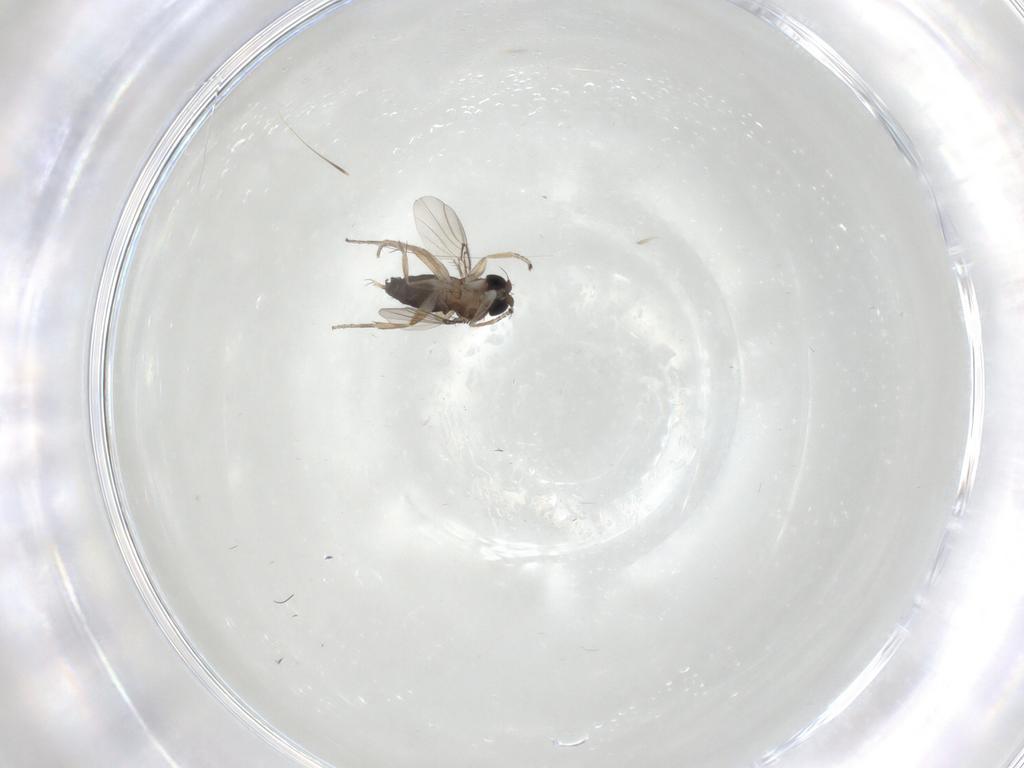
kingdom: Animalia
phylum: Arthropoda
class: Insecta
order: Diptera
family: Phoridae
